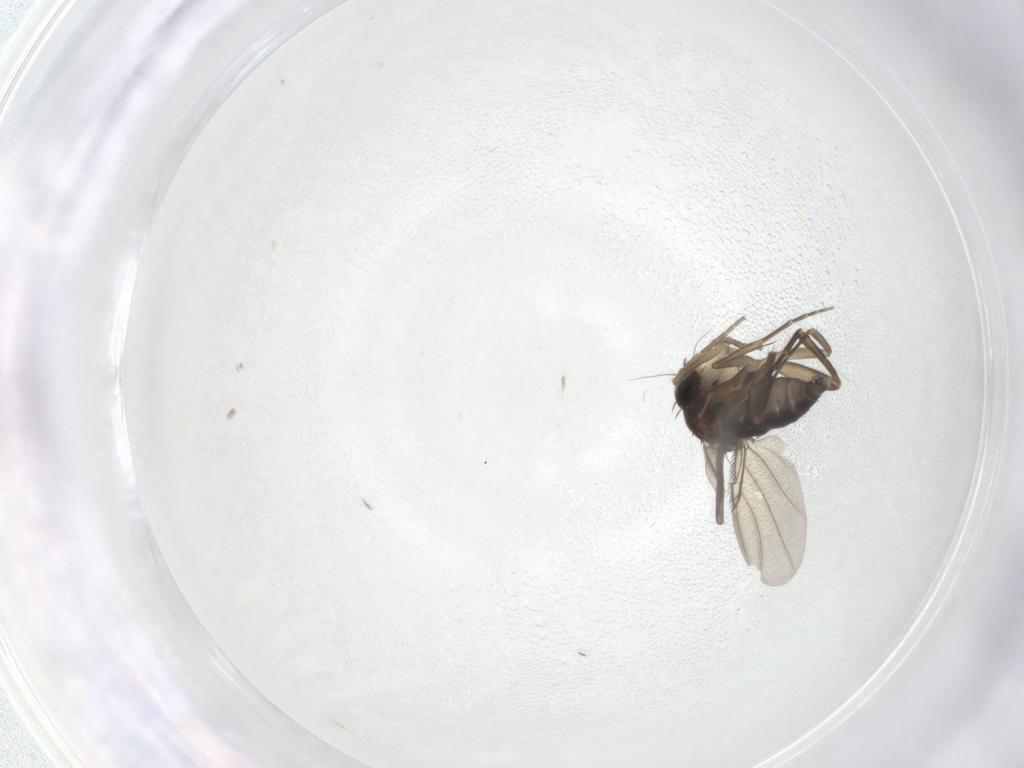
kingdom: Animalia
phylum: Arthropoda
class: Insecta
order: Diptera
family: Phoridae
